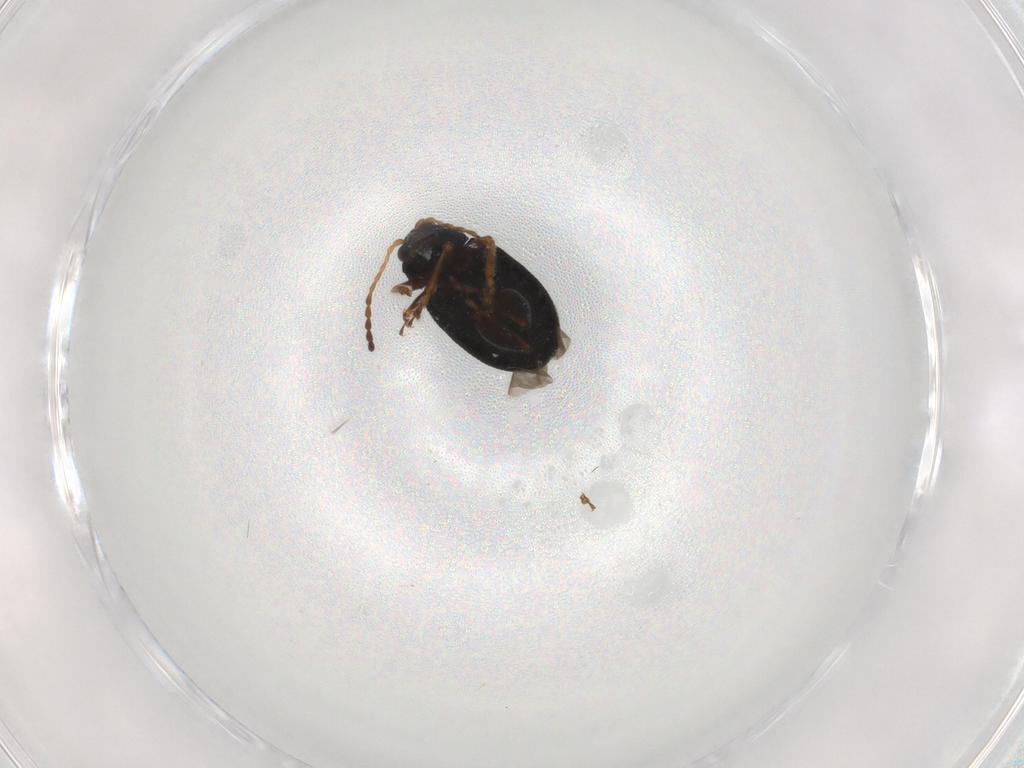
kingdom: Animalia
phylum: Arthropoda
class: Insecta
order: Coleoptera
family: Chrysomelidae
